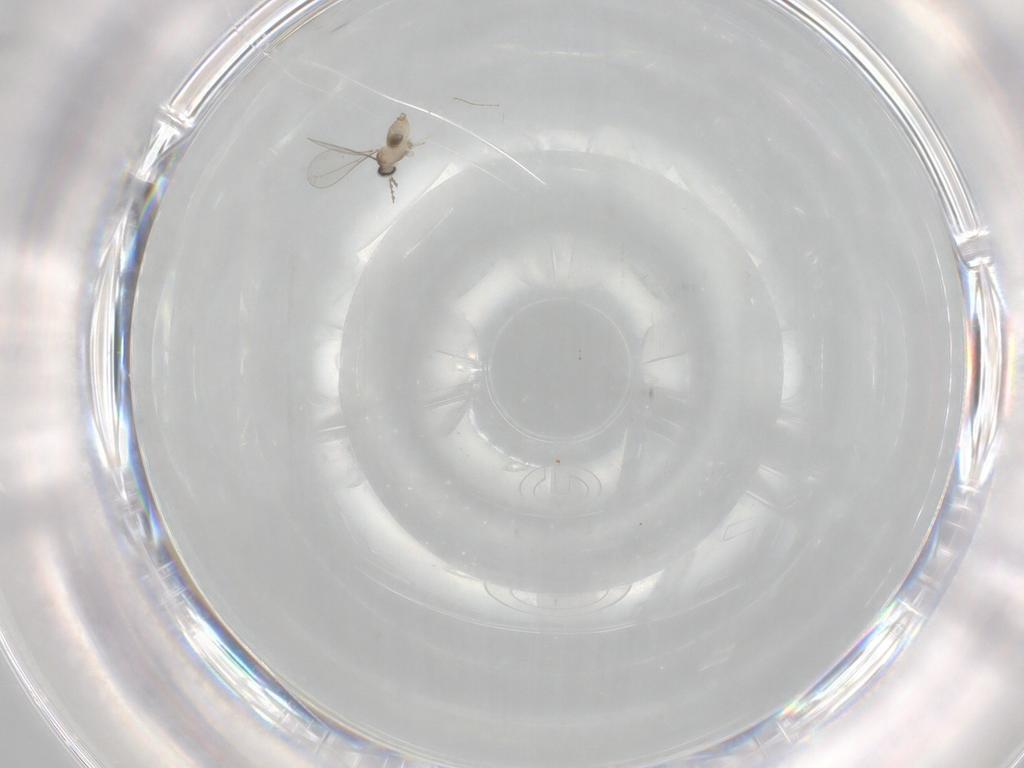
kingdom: Animalia
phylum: Arthropoda
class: Insecta
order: Diptera
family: Cecidomyiidae
